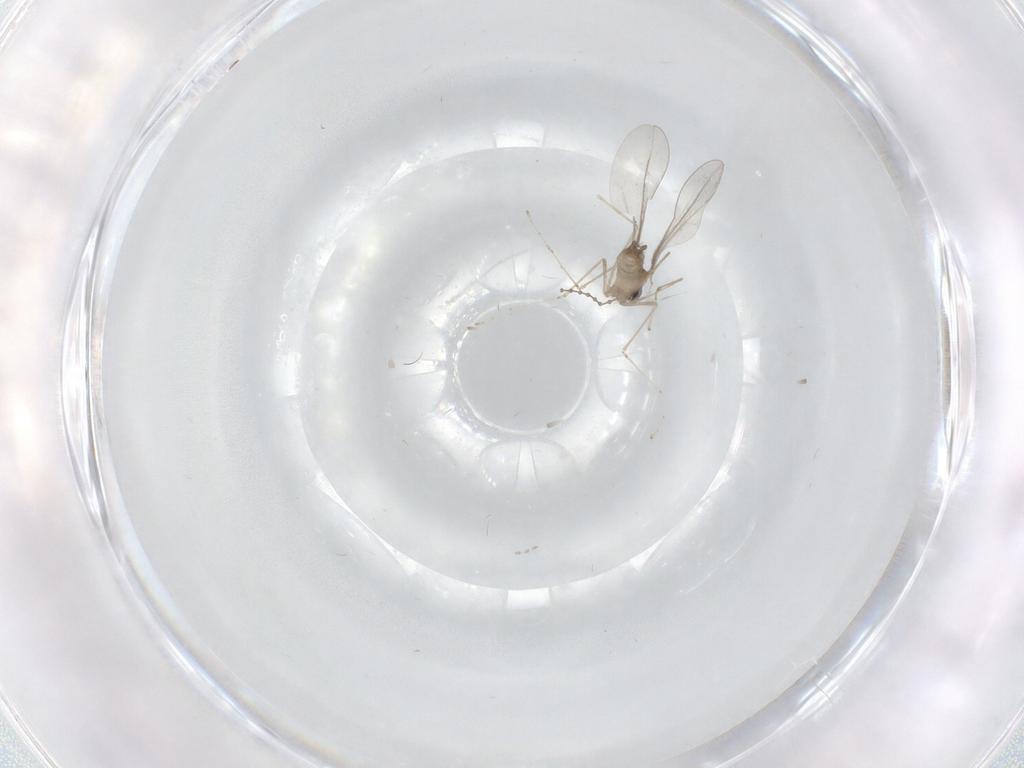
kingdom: Animalia
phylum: Arthropoda
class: Insecta
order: Diptera
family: Cecidomyiidae
